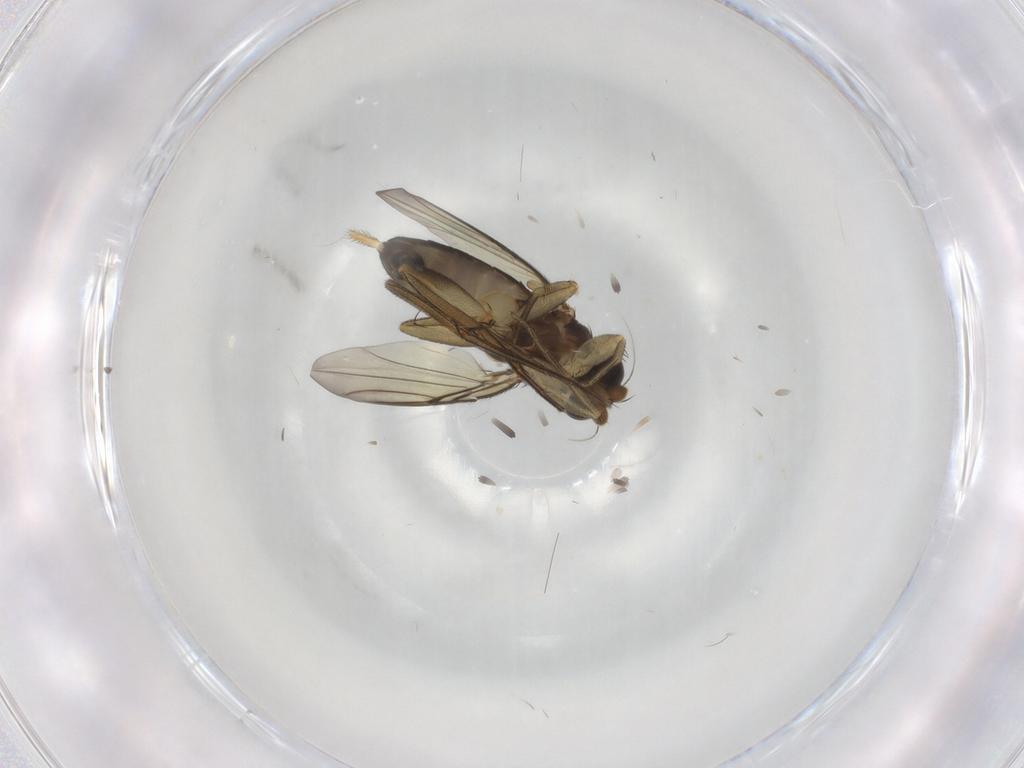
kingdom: Animalia
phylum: Arthropoda
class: Insecta
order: Diptera
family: Phoridae
